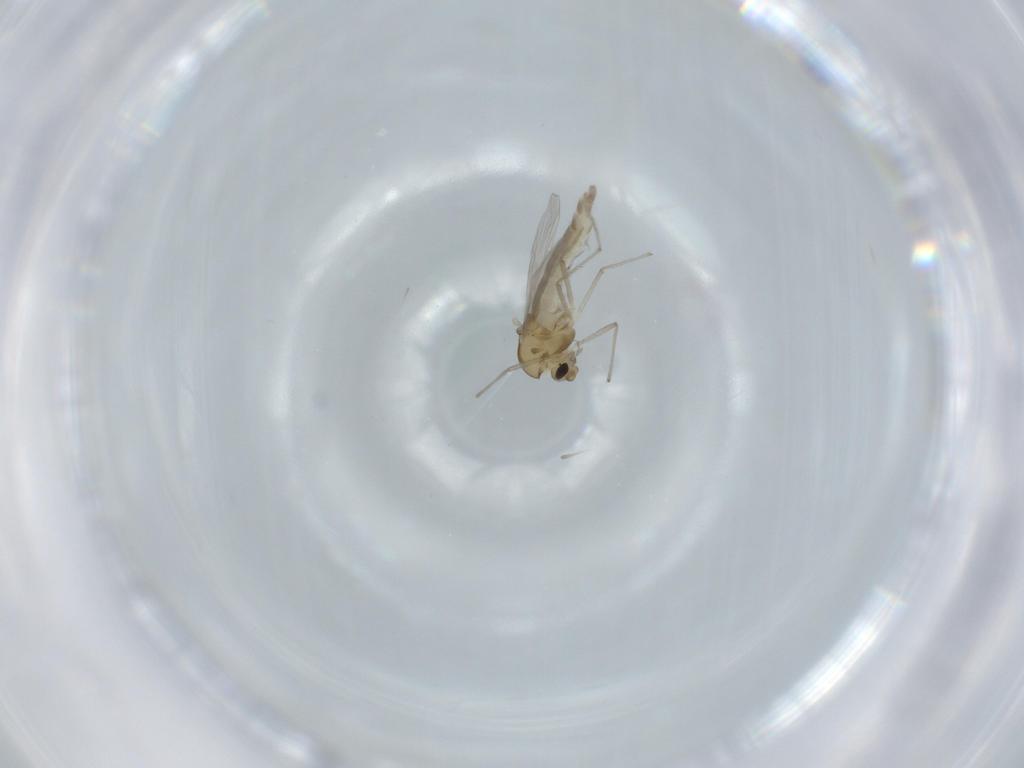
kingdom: Animalia
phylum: Arthropoda
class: Insecta
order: Diptera
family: Chironomidae
